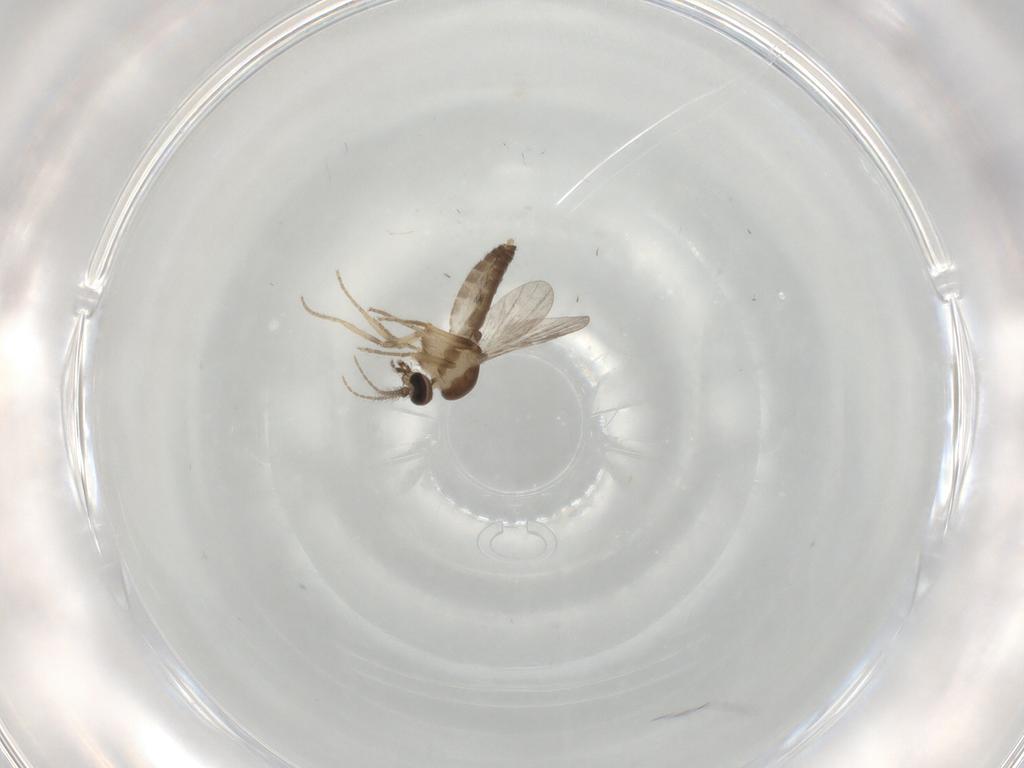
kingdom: Animalia
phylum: Arthropoda
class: Insecta
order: Diptera
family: Ceratopogonidae
